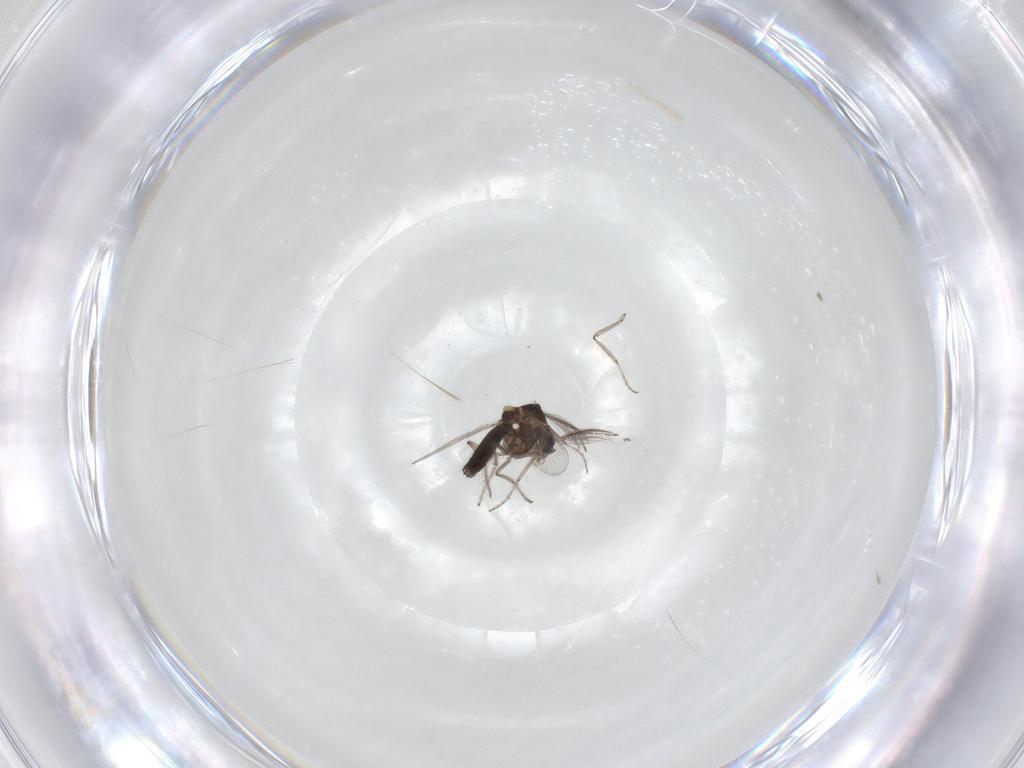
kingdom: Animalia
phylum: Arthropoda
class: Insecta
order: Diptera
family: Ceratopogonidae
